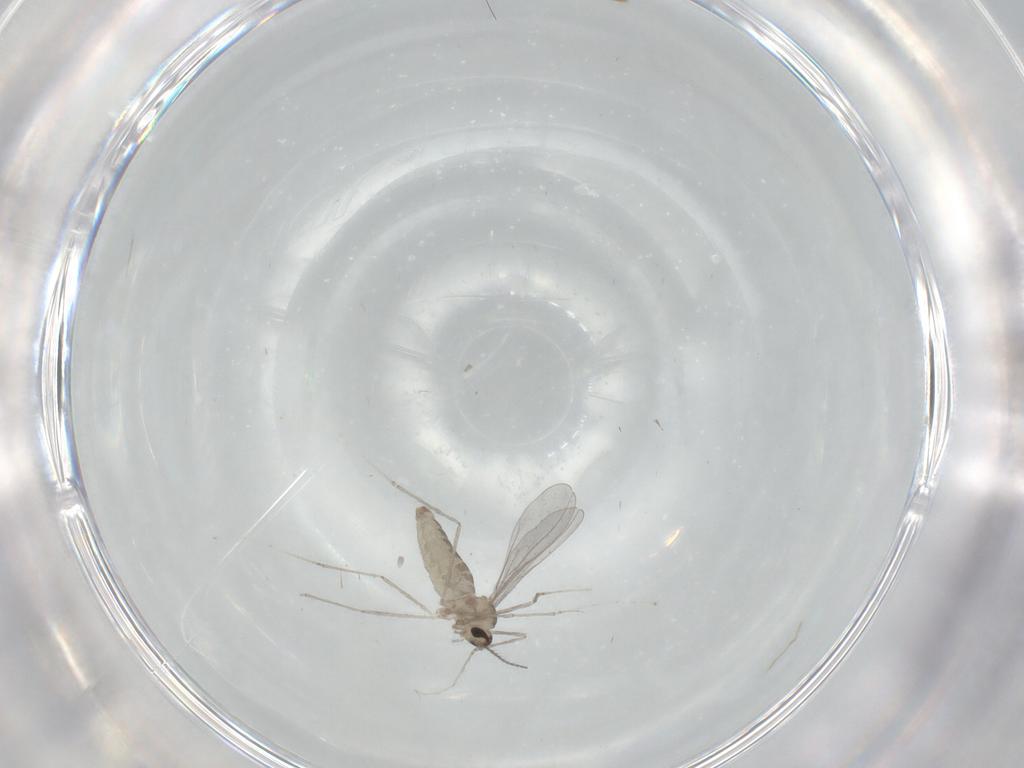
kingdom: Animalia
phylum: Arthropoda
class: Insecta
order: Diptera
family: Cecidomyiidae
